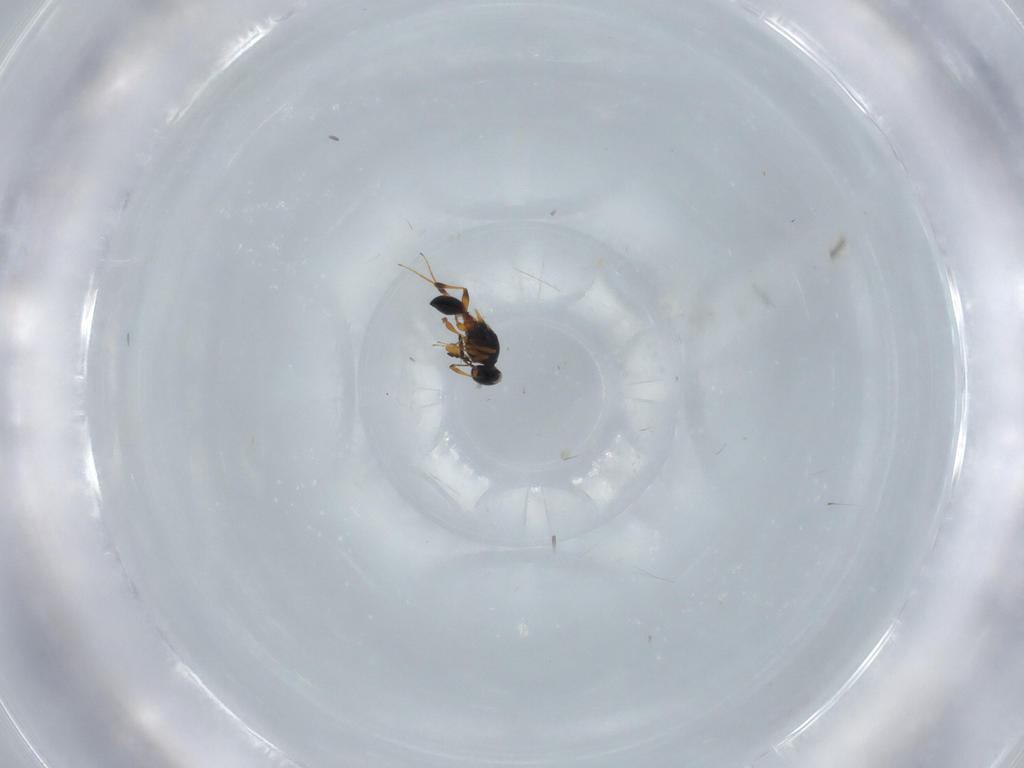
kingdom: Animalia
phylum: Arthropoda
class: Insecta
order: Hymenoptera
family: Platygastridae
